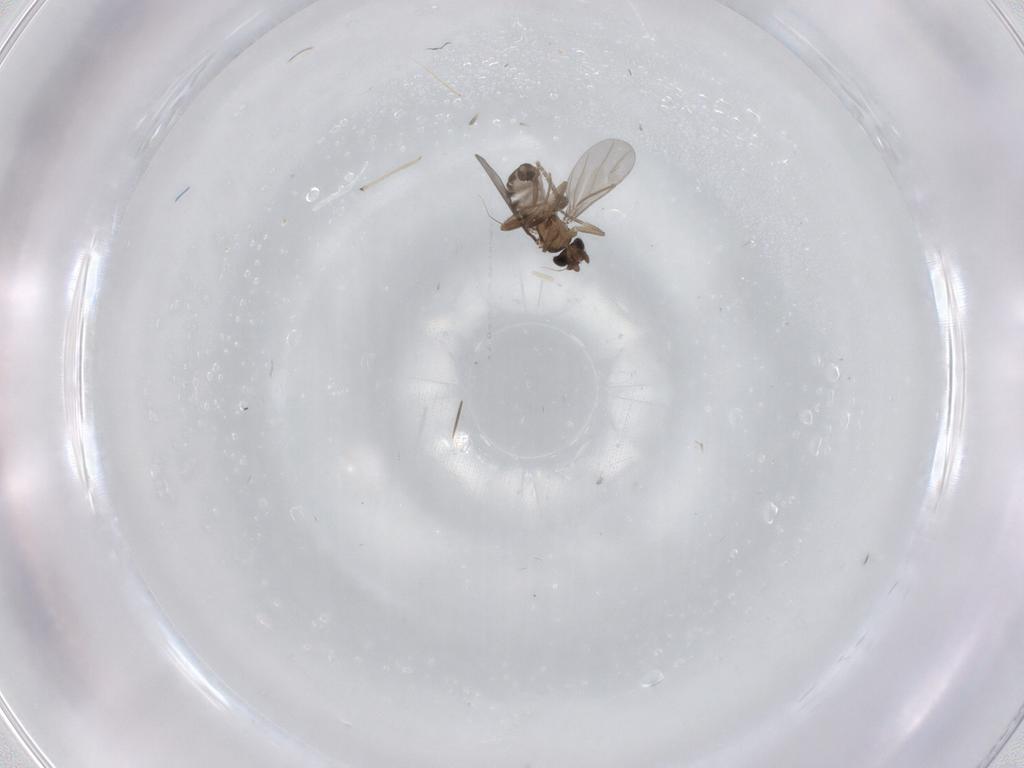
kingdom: Animalia
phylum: Arthropoda
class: Insecta
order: Diptera
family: Chironomidae
